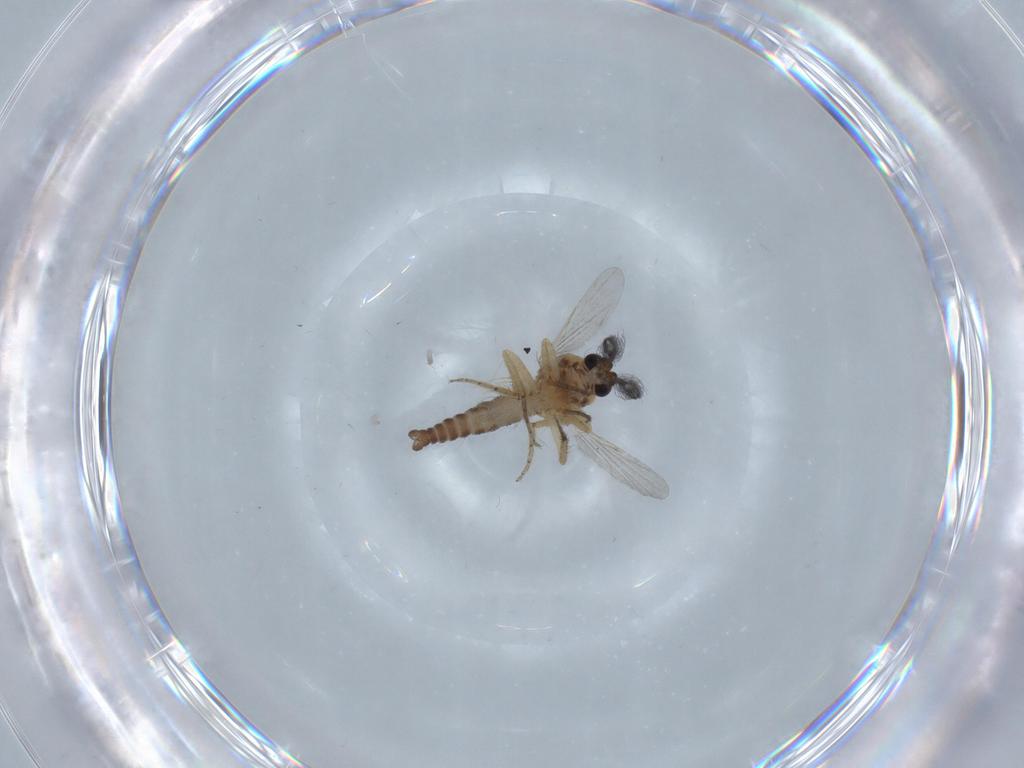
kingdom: Animalia
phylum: Arthropoda
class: Insecta
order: Diptera
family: Ceratopogonidae
